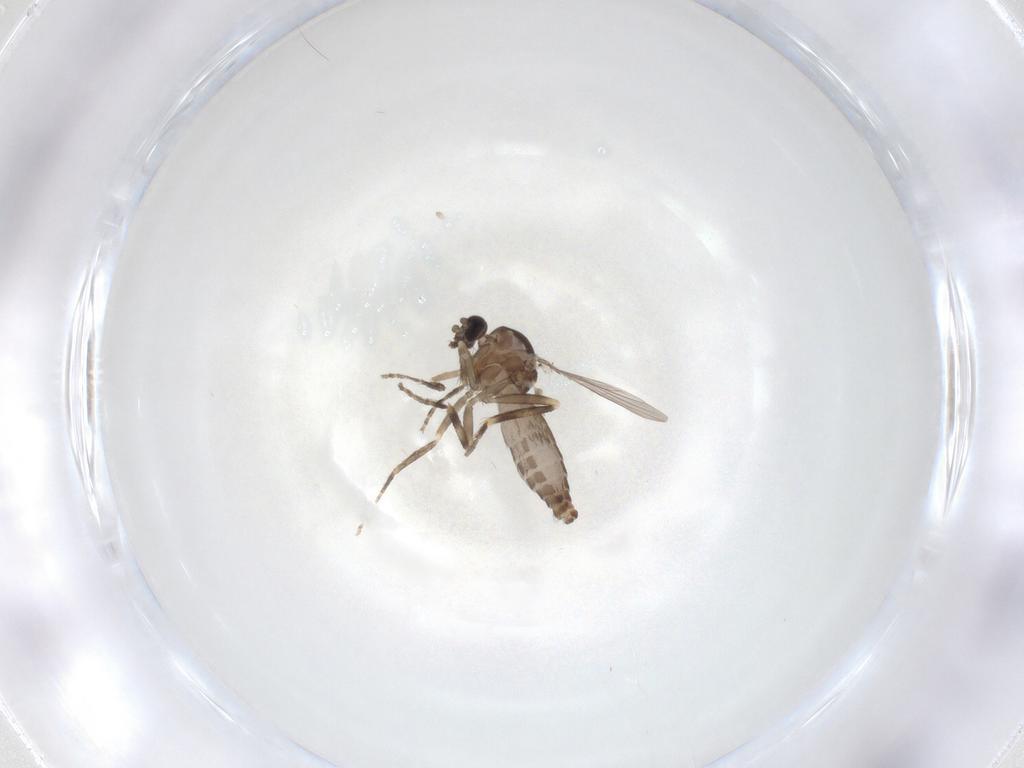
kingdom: Animalia
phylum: Arthropoda
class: Insecta
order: Diptera
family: Ceratopogonidae
